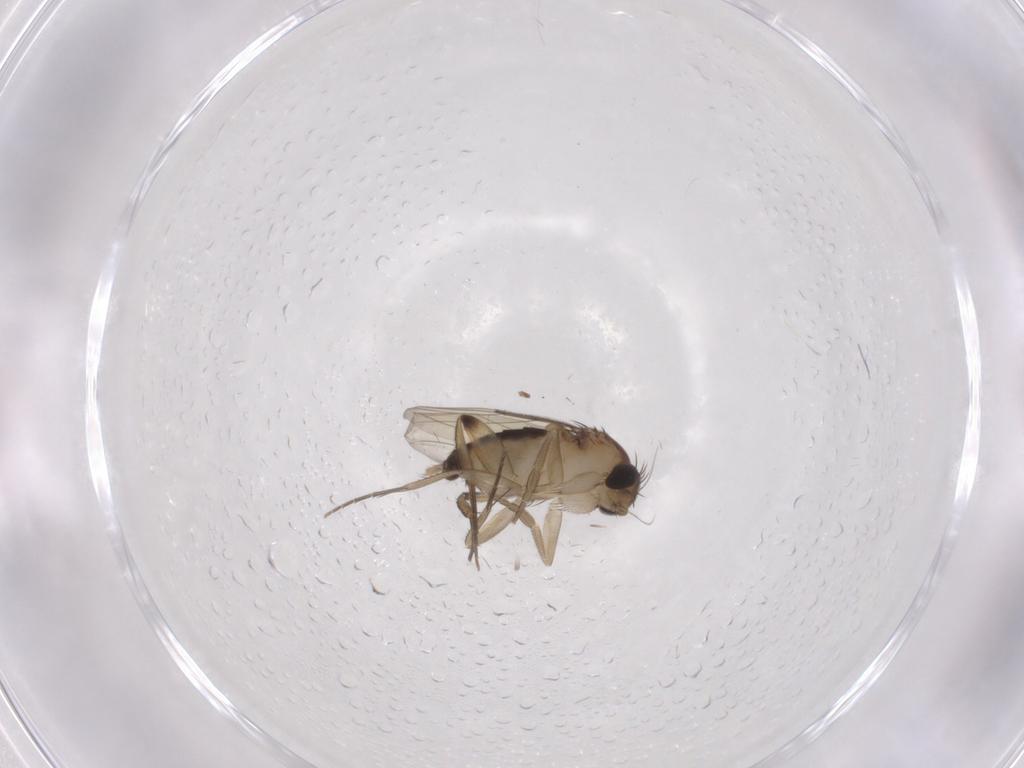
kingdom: Animalia
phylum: Arthropoda
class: Insecta
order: Diptera
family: Phoridae
